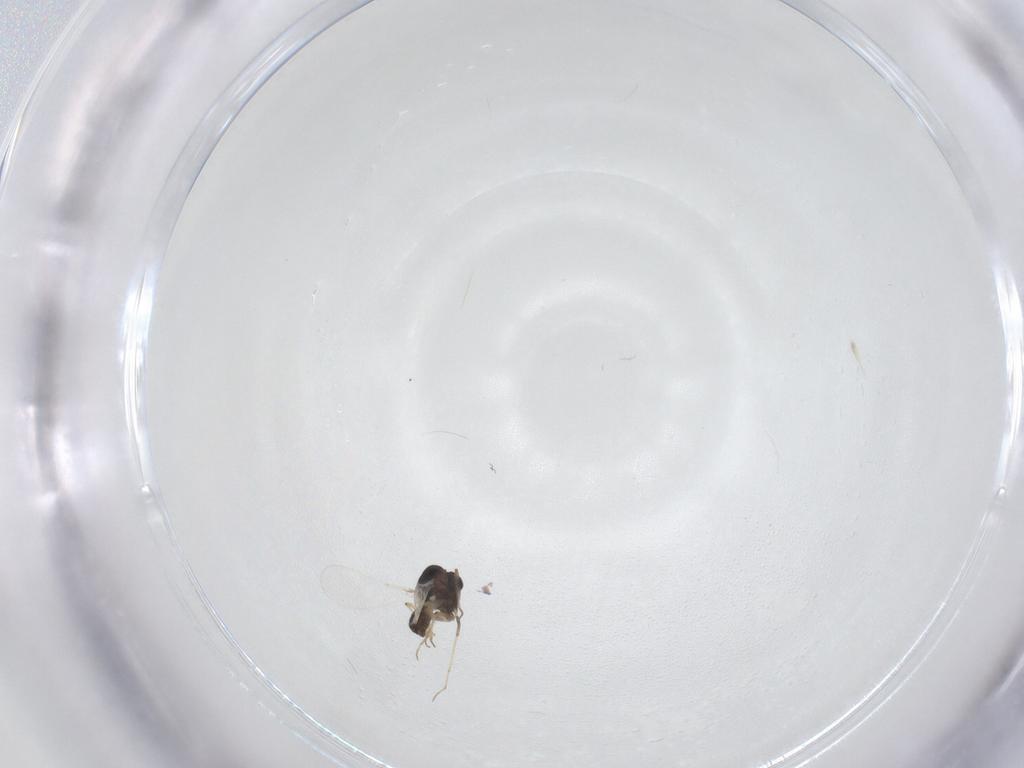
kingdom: Animalia
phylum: Arthropoda
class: Insecta
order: Diptera
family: Chironomidae
